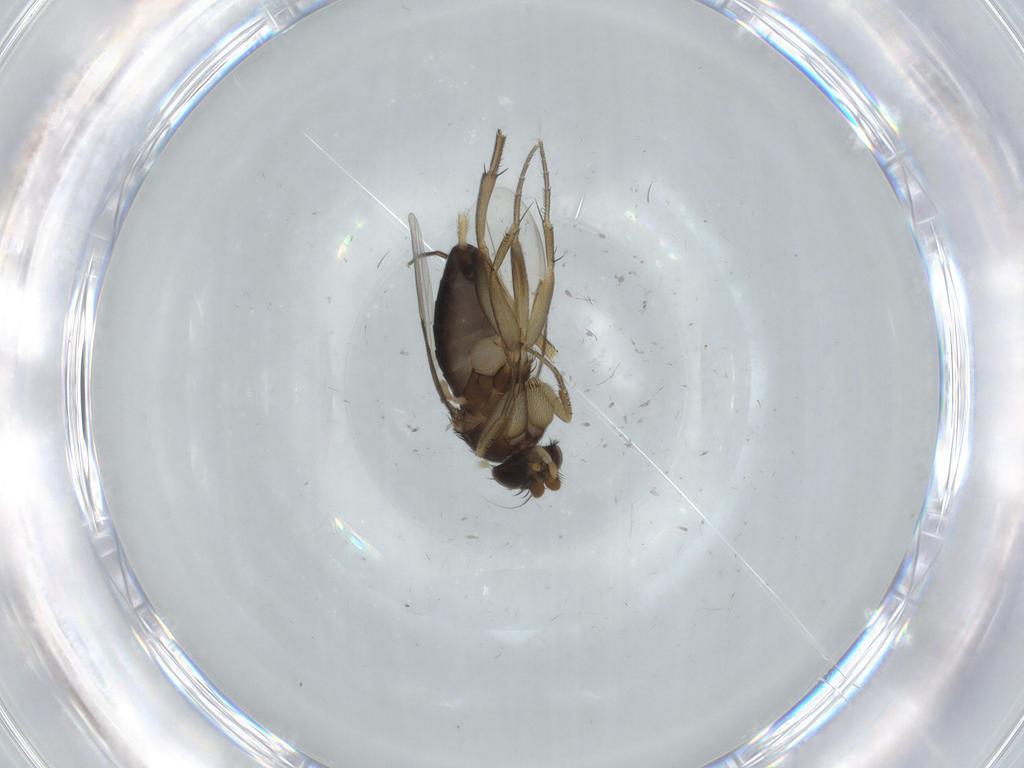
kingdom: Animalia
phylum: Arthropoda
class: Insecta
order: Diptera
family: Phoridae
